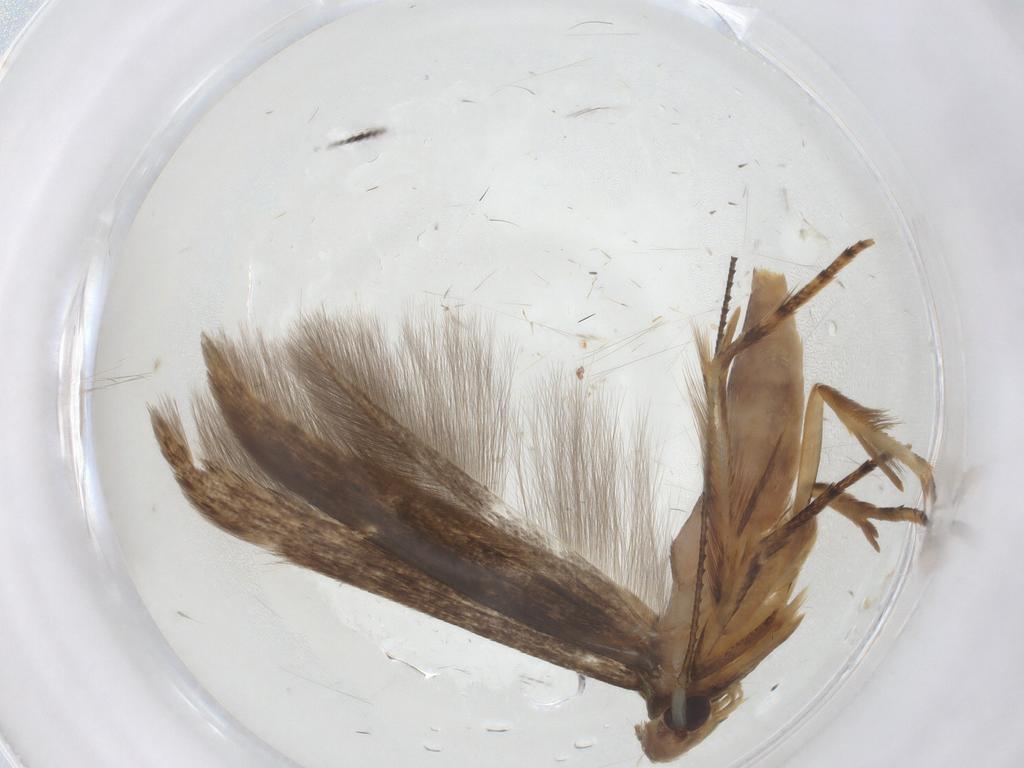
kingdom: Animalia
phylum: Arthropoda
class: Insecta
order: Lepidoptera
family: Heliodinidae
